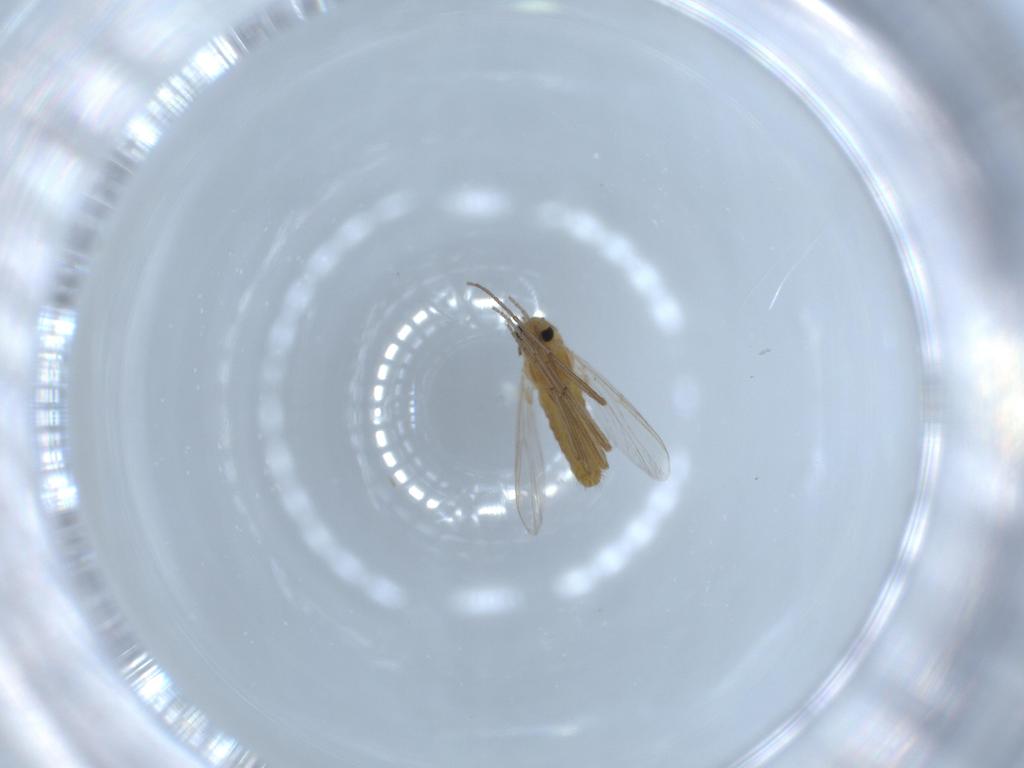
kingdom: Animalia
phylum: Arthropoda
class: Insecta
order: Diptera
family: Chironomidae
